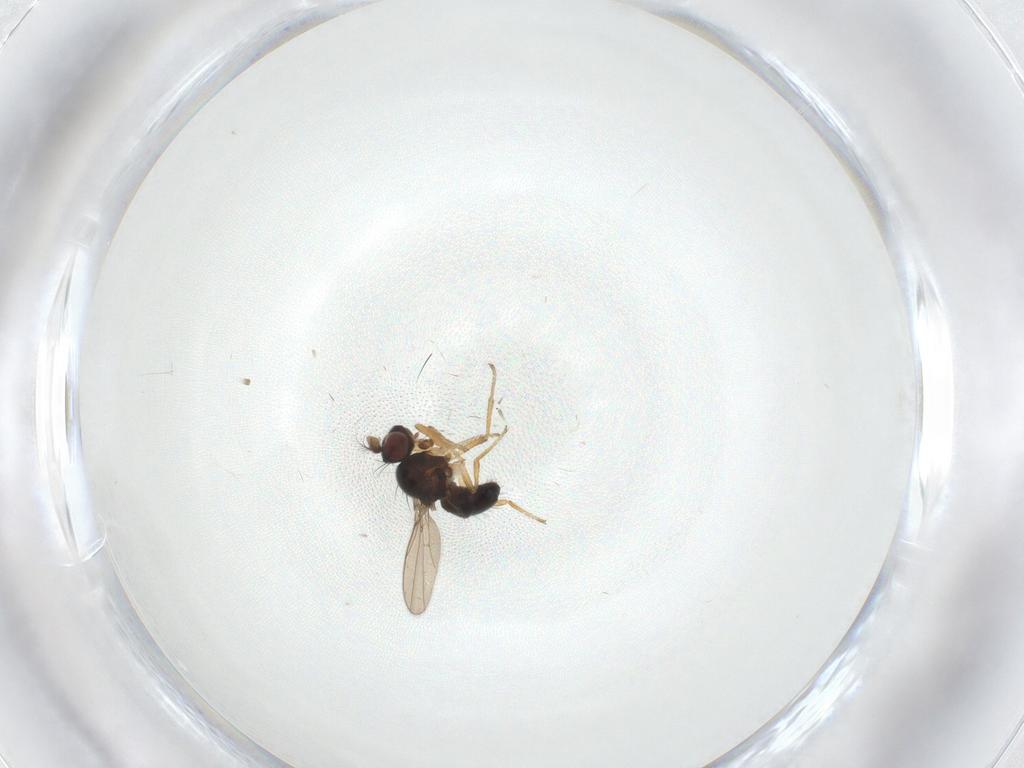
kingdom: Animalia
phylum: Arthropoda
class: Insecta
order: Diptera
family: Ephydridae
